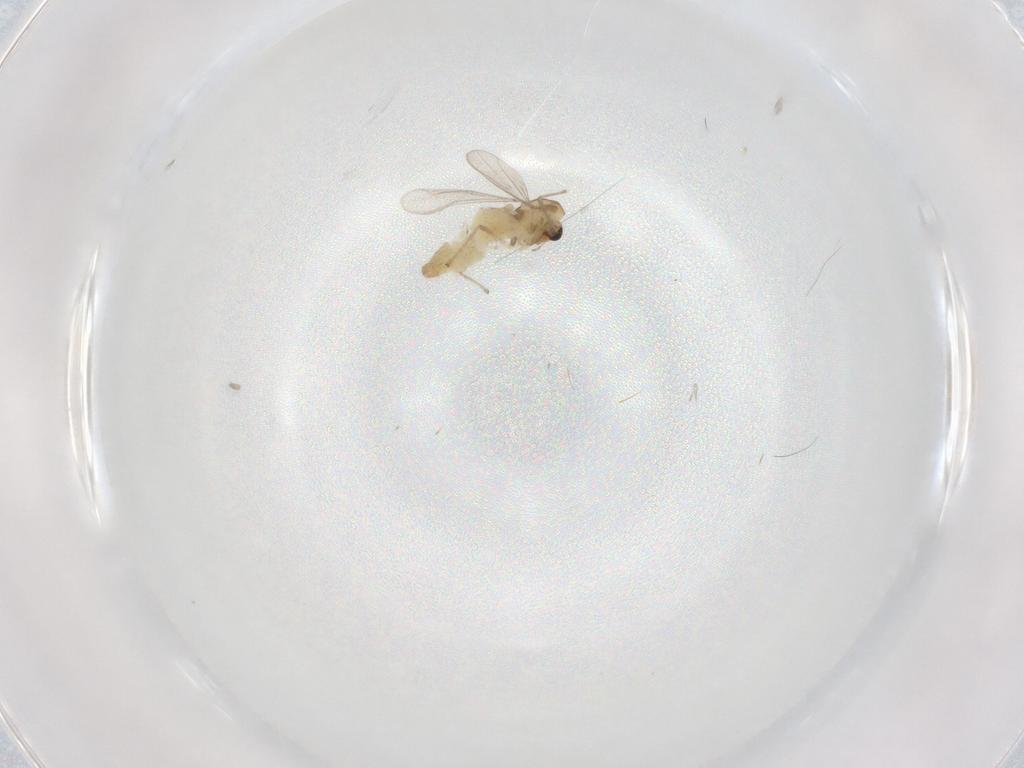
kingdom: Animalia
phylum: Arthropoda
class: Insecta
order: Diptera
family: Chironomidae
